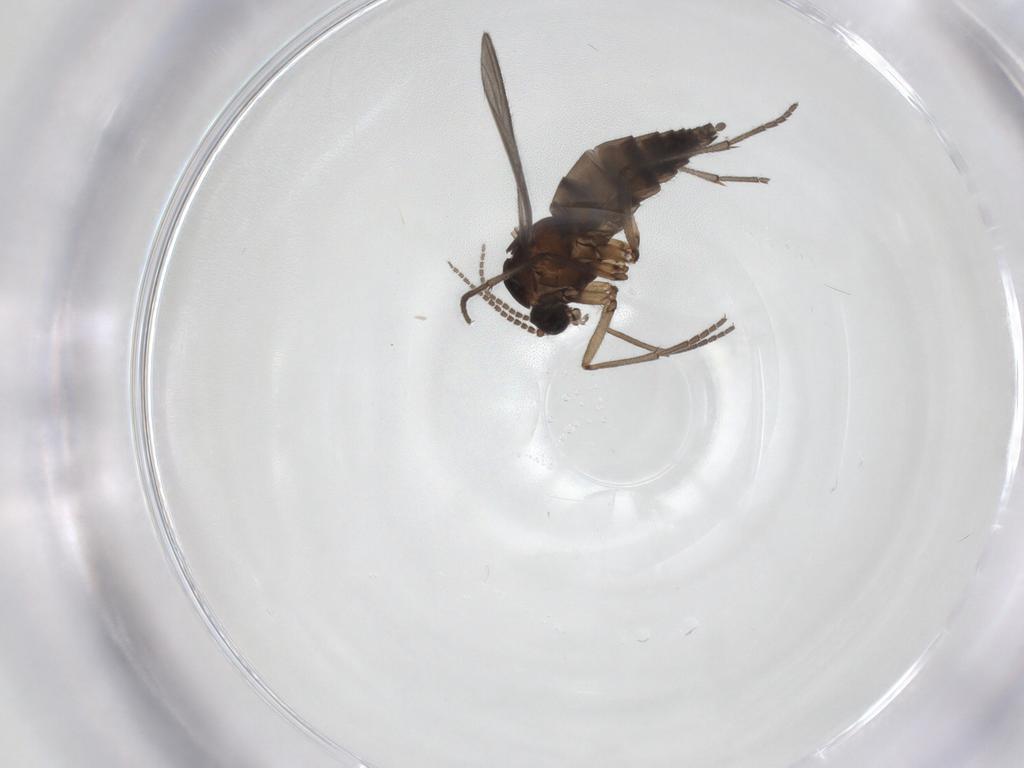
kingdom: Animalia
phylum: Arthropoda
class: Insecta
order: Diptera
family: Sciaridae
